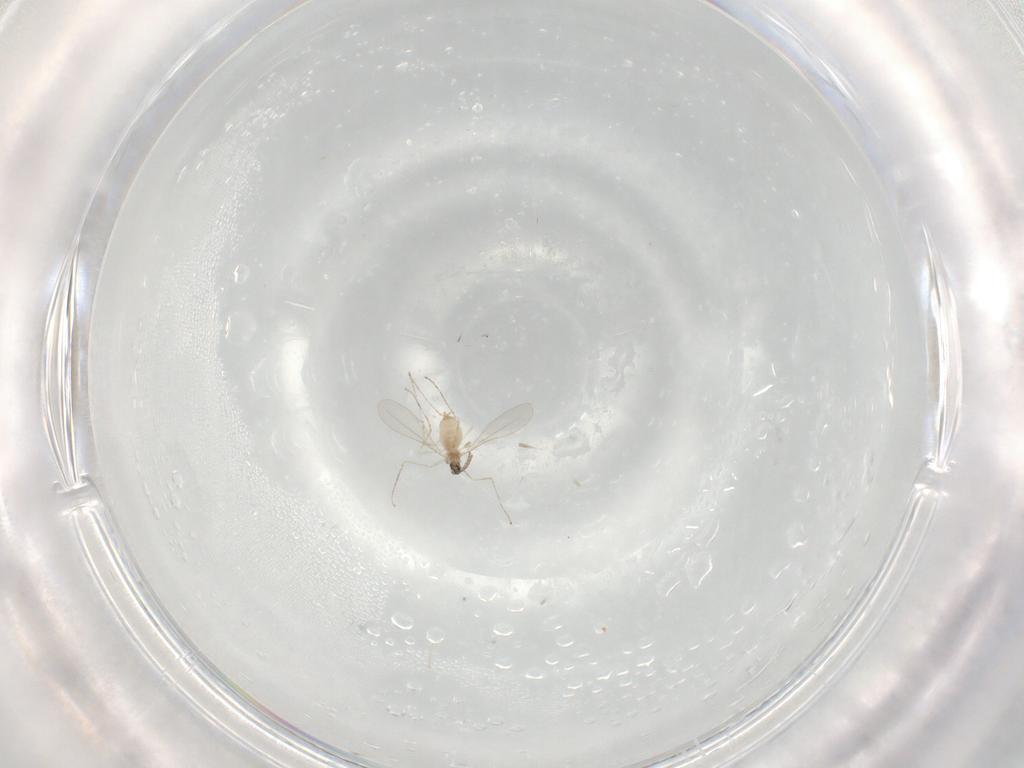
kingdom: Animalia
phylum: Arthropoda
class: Insecta
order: Diptera
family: Cecidomyiidae
